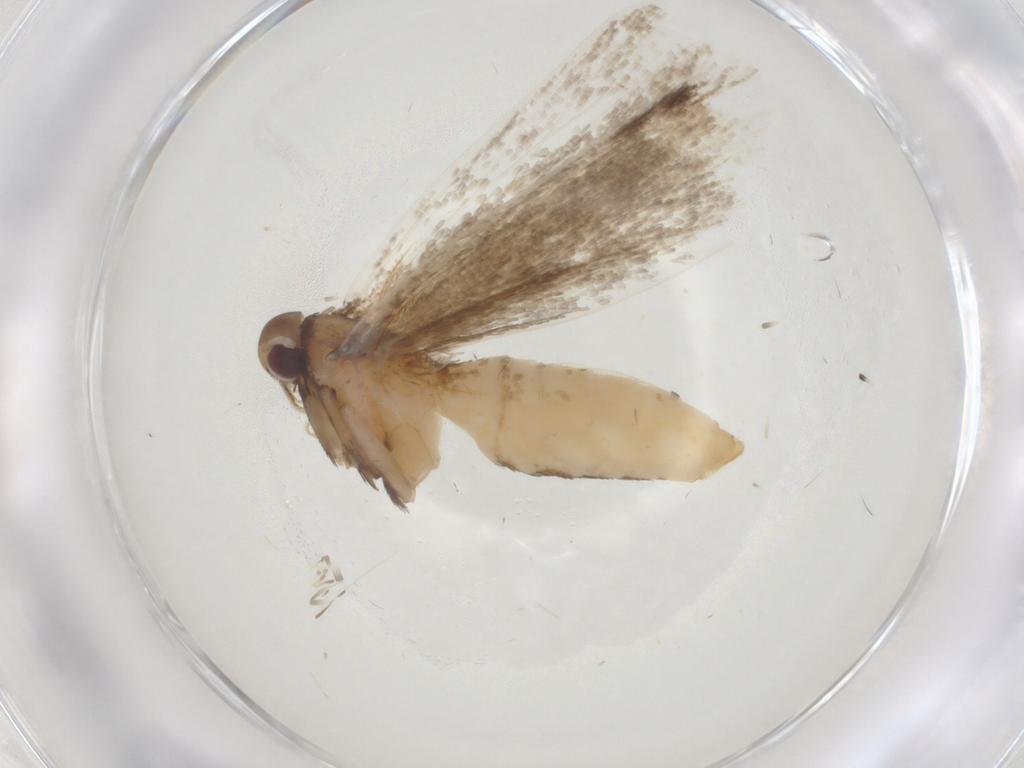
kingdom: Animalia
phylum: Arthropoda
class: Insecta
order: Lepidoptera
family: Crambidae
